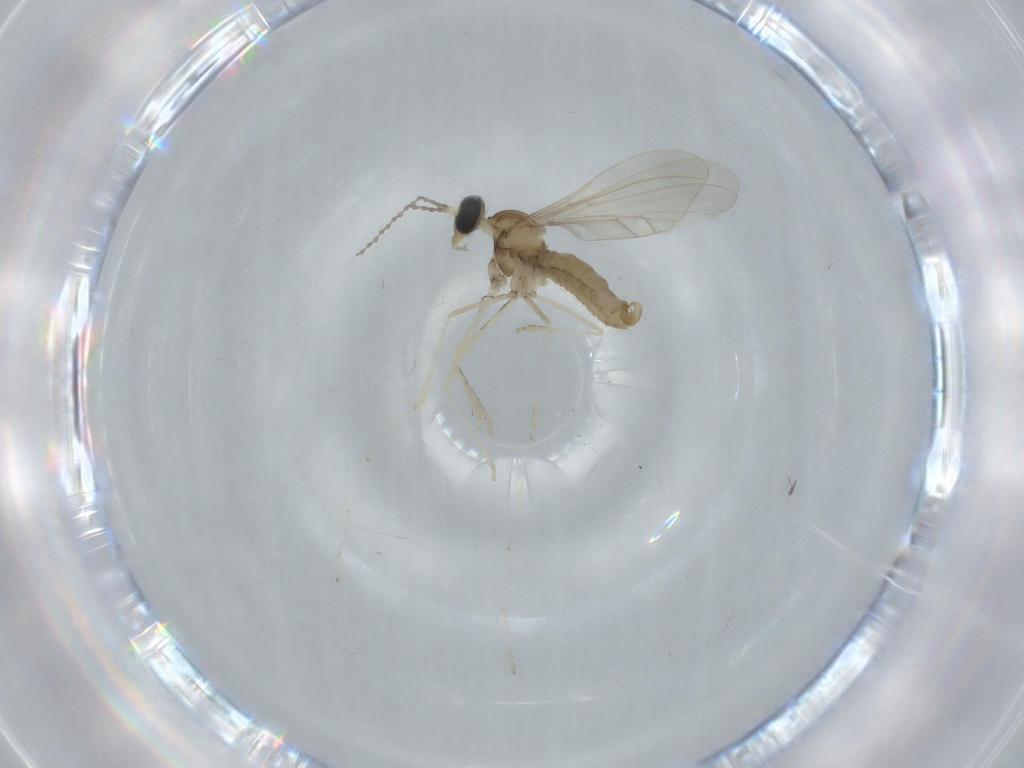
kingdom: Animalia
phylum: Arthropoda
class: Insecta
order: Diptera
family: Cecidomyiidae
